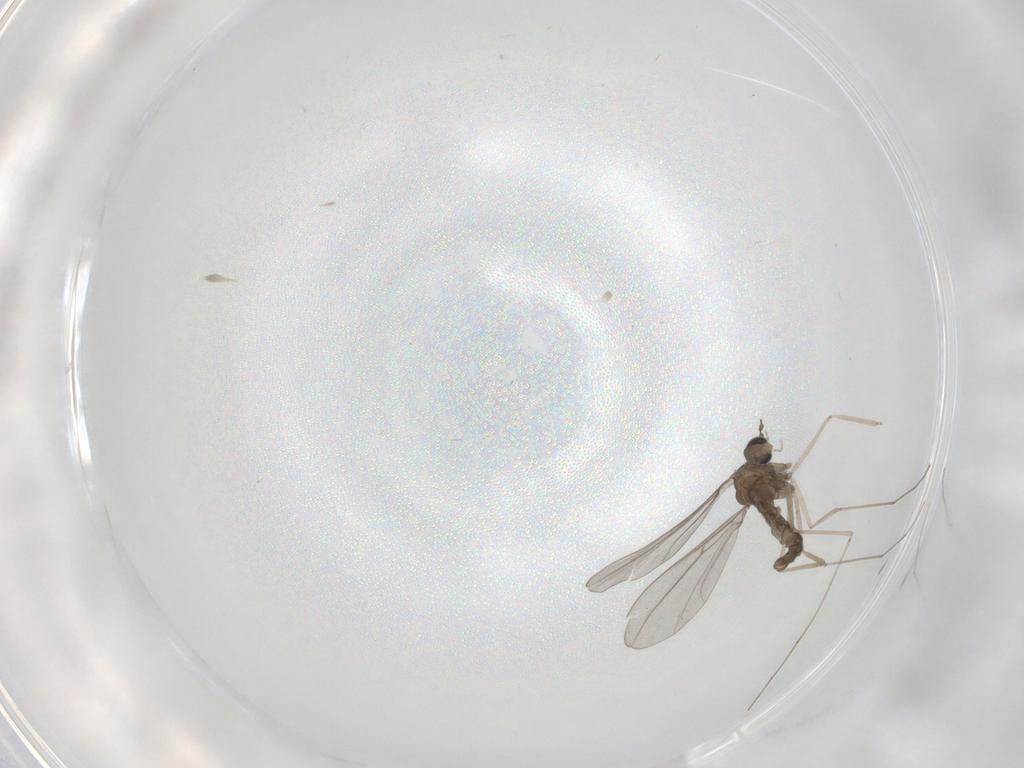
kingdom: Animalia
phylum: Arthropoda
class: Insecta
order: Diptera
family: Cecidomyiidae
